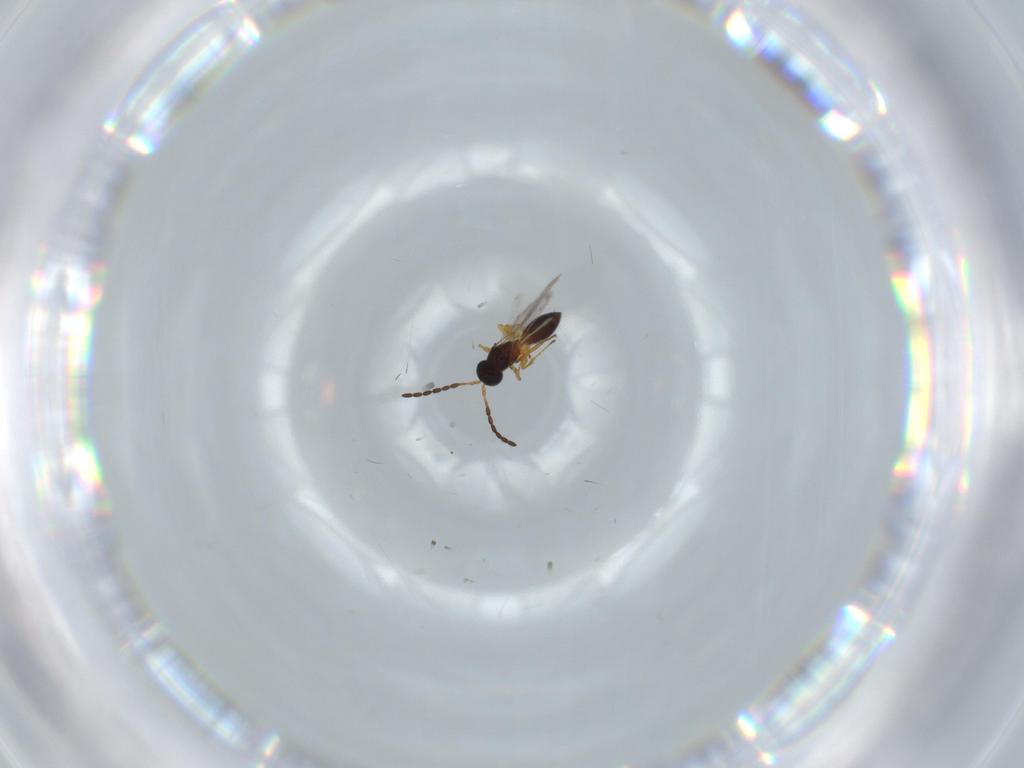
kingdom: Animalia
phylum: Arthropoda
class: Insecta
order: Hymenoptera
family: Figitidae
